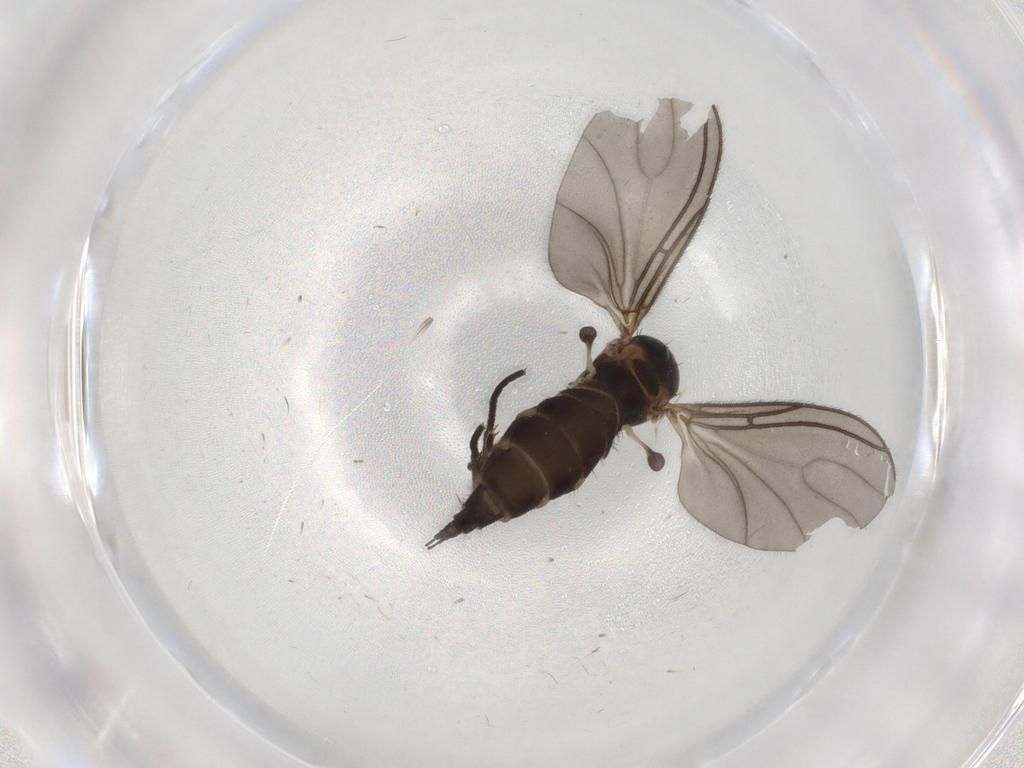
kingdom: Animalia
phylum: Arthropoda
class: Insecta
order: Diptera
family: Sciaridae
